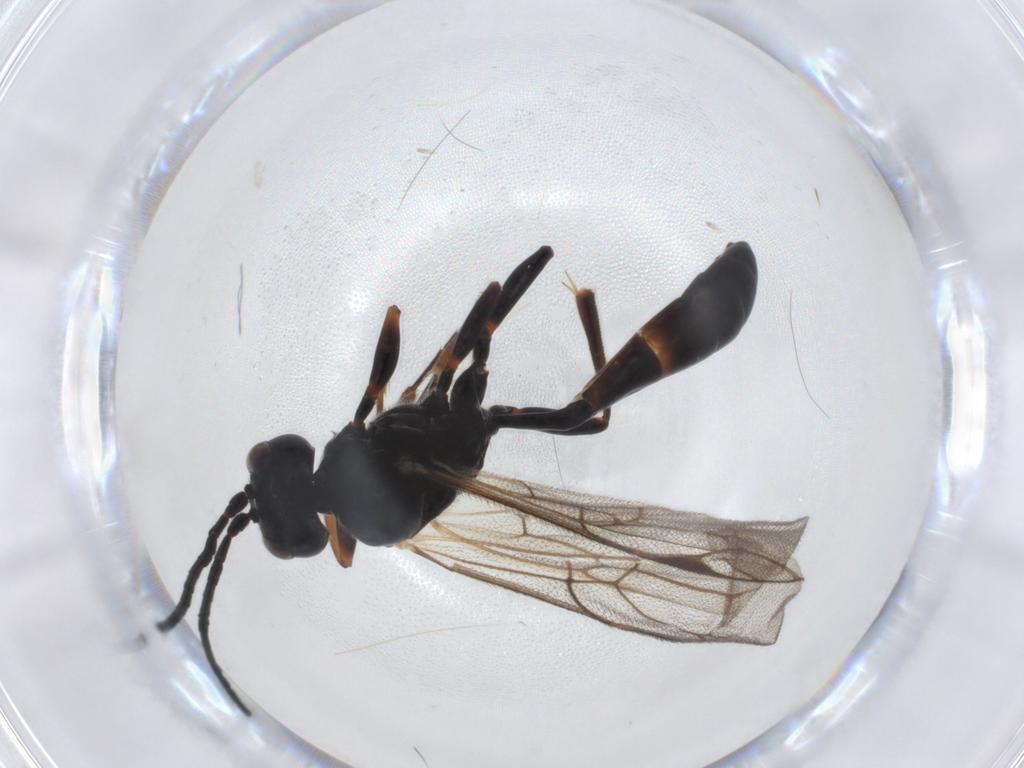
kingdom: Animalia
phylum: Arthropoda
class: Insecta
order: Hymenoptera
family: Ichneumonidae
